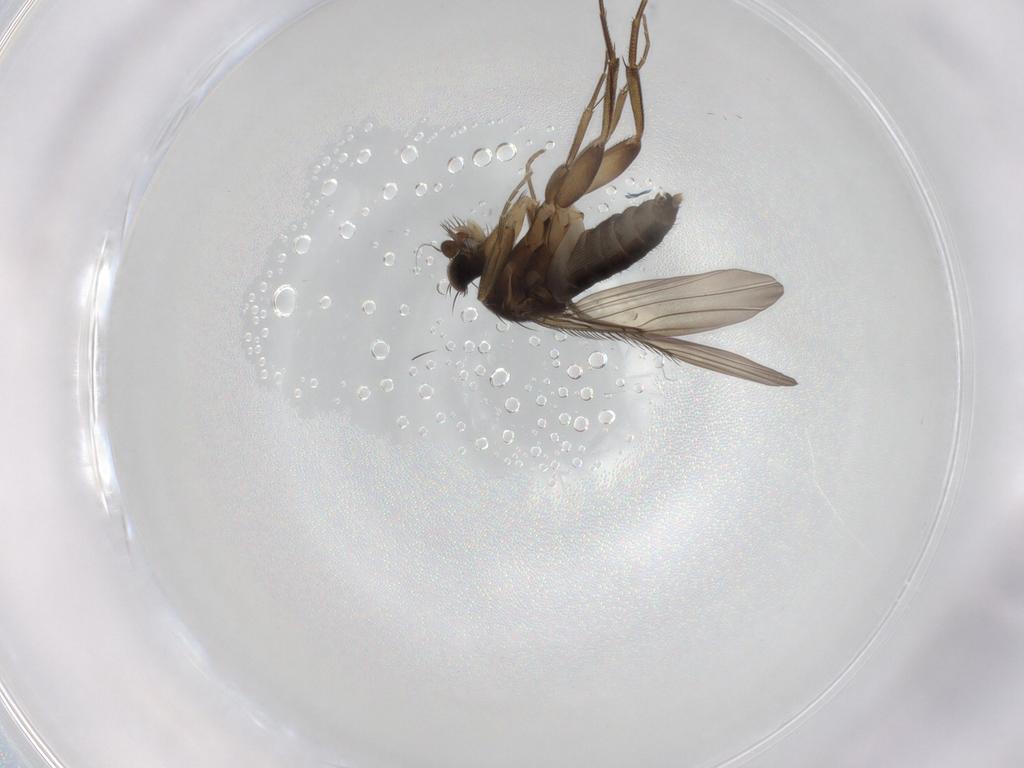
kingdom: Animalia
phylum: Arthropoda
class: Insecta
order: Diptera
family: Phoridae
